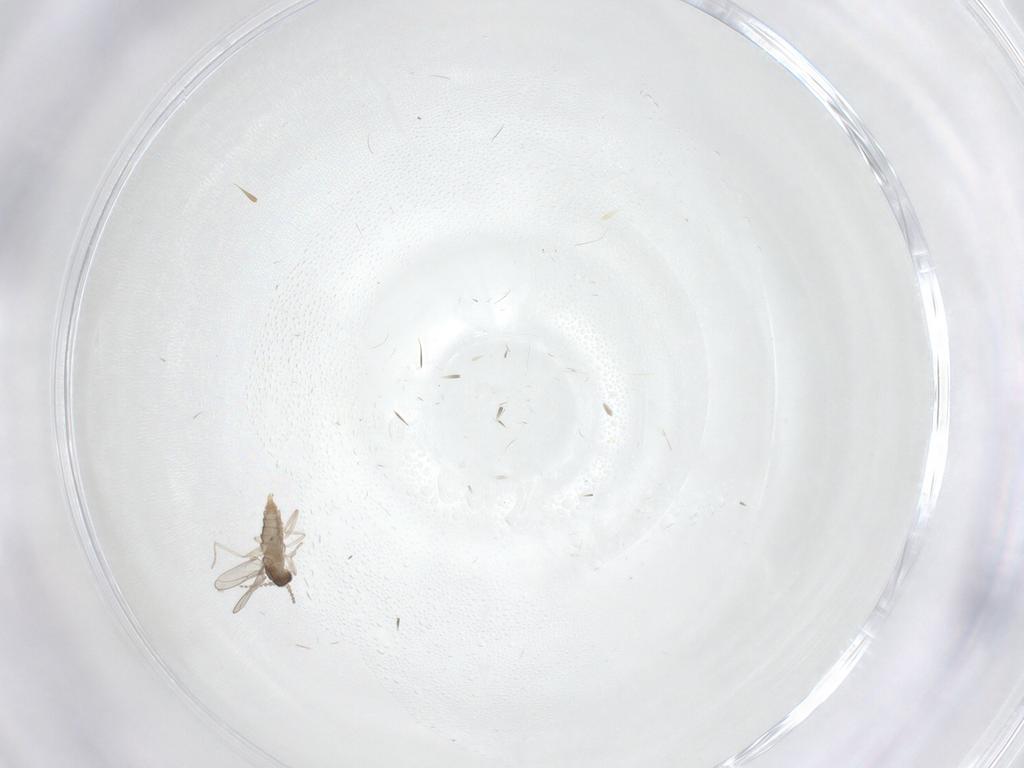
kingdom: Animalia
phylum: Arthropoda
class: Insecta
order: Diptera
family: Cecidomyiidae
